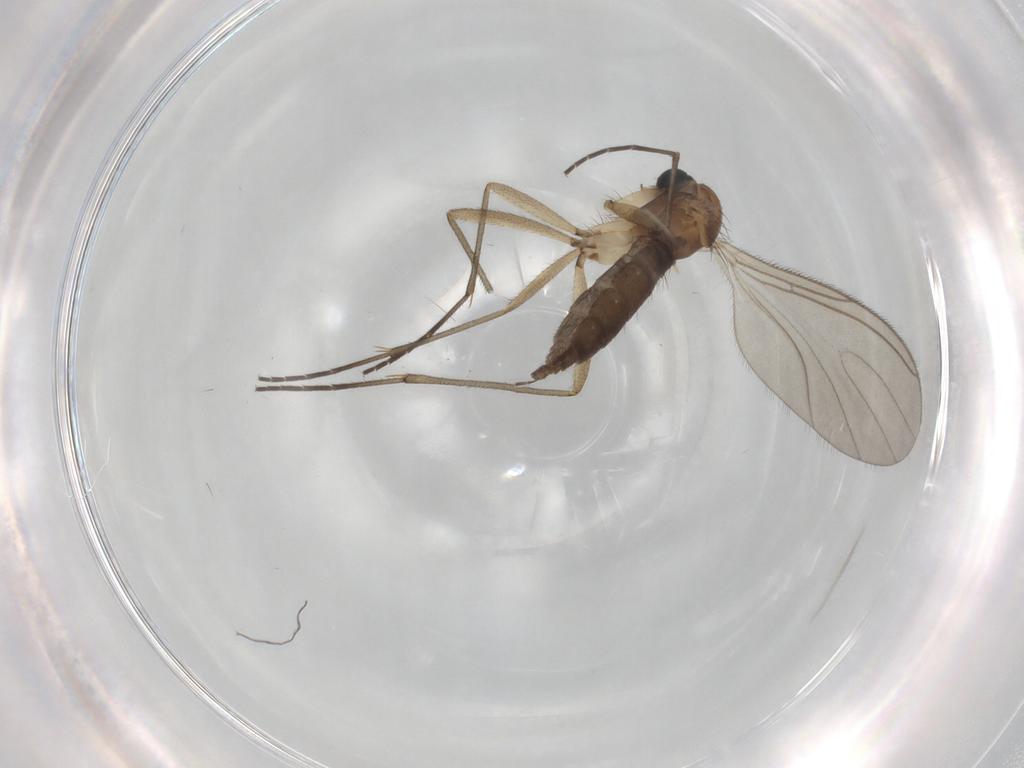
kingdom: Animalia
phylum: Arthropoda
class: Insecta
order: Diptera
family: Sciaridae
